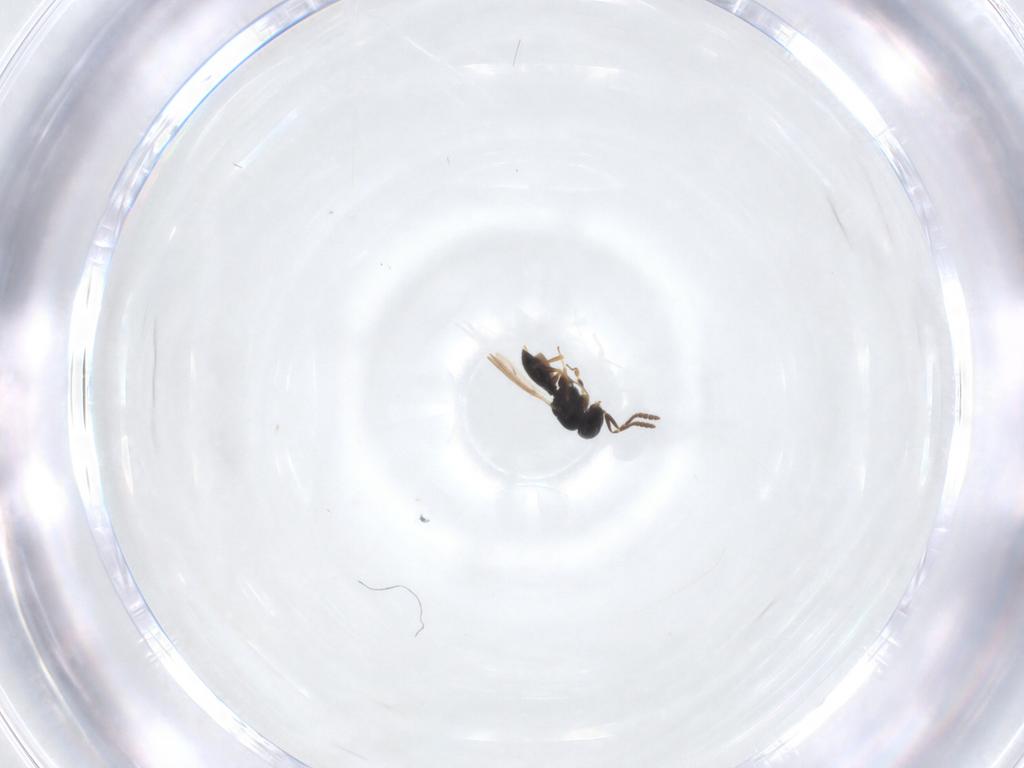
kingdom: Animalia
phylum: Arthropoda
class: Insecta
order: Hymenoptera
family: Scelionidae
